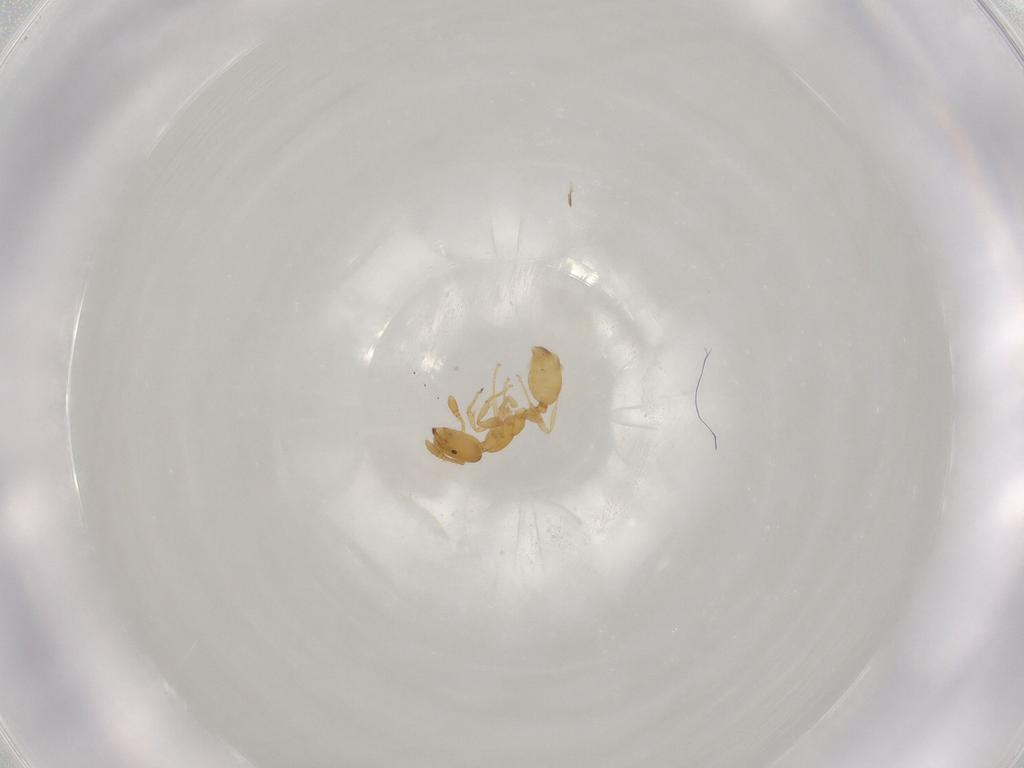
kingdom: Animalia
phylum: Arthropoda
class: Insecta
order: Hymenoptera
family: Formicidae
